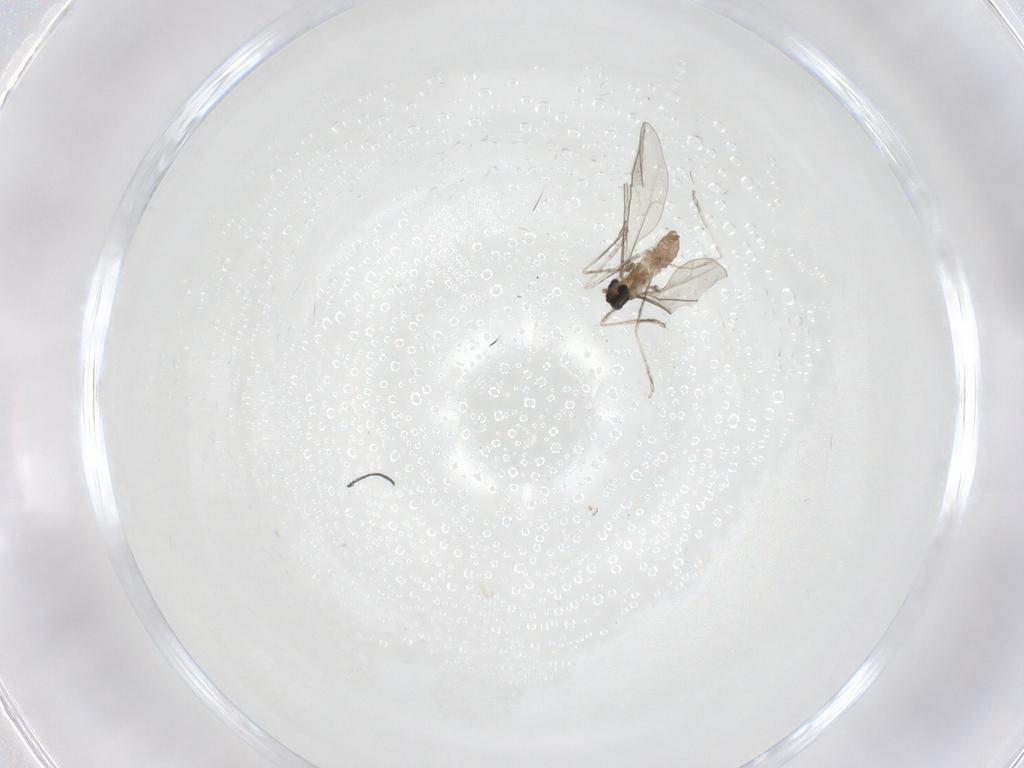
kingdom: Animalia
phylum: Arthropoda
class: Insecta
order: Diptera
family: Cecidomyiidae
